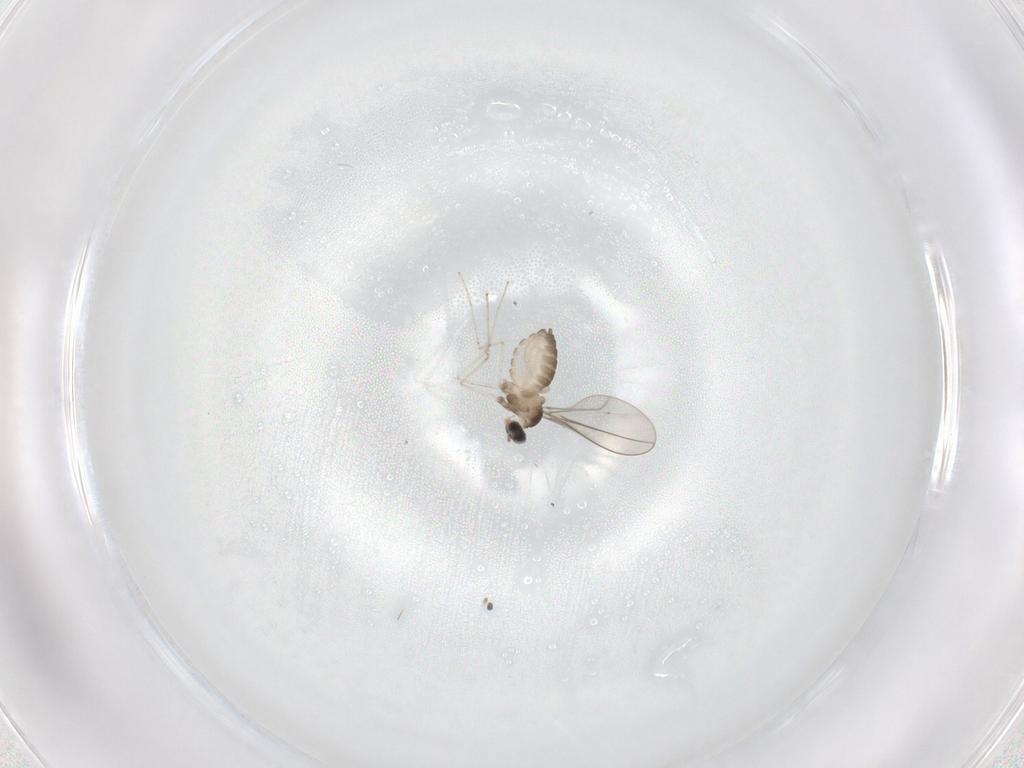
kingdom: Animalia
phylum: Arthropoda
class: Insecta
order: Diptera
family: Cecidomyiidae
